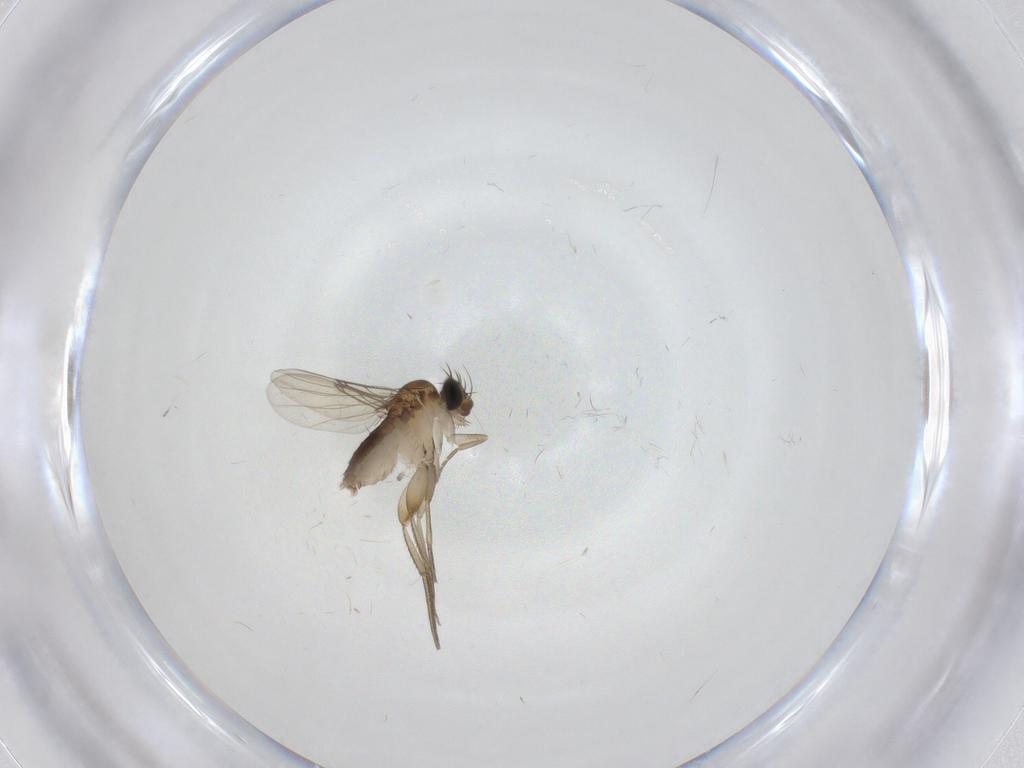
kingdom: Animalia
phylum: Arthropoda
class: Insecta
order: Diptera
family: Phoridae
